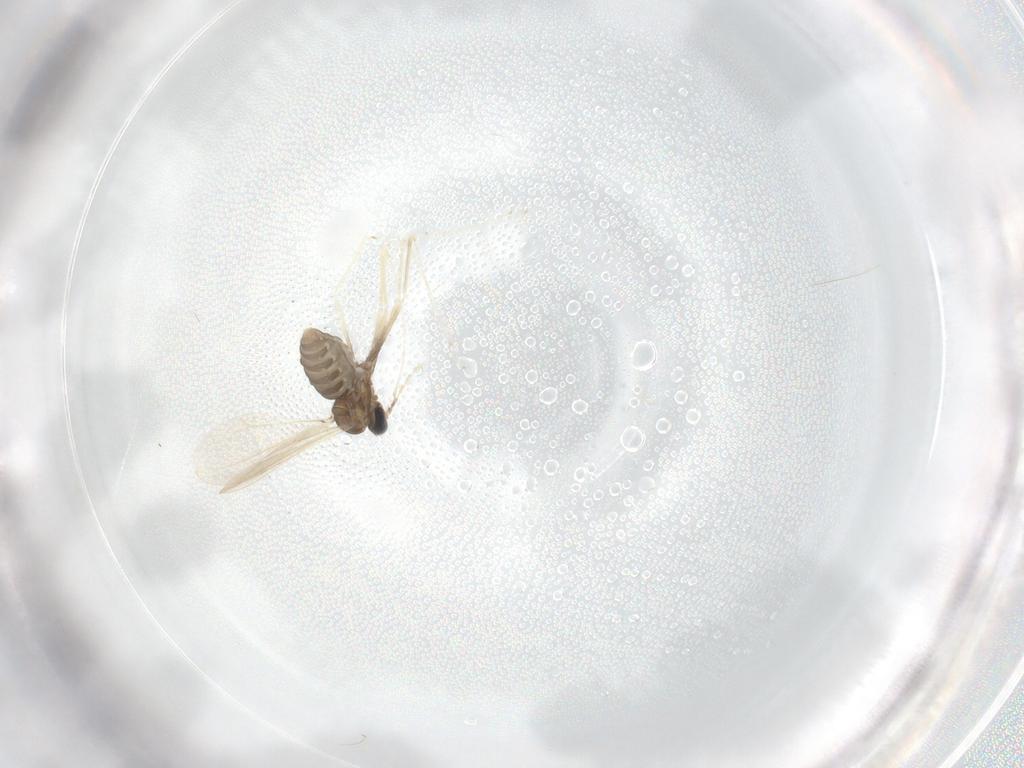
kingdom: Animalia
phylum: Arthropoda
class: Insecta
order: Diptera
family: Cecidomyiidae
